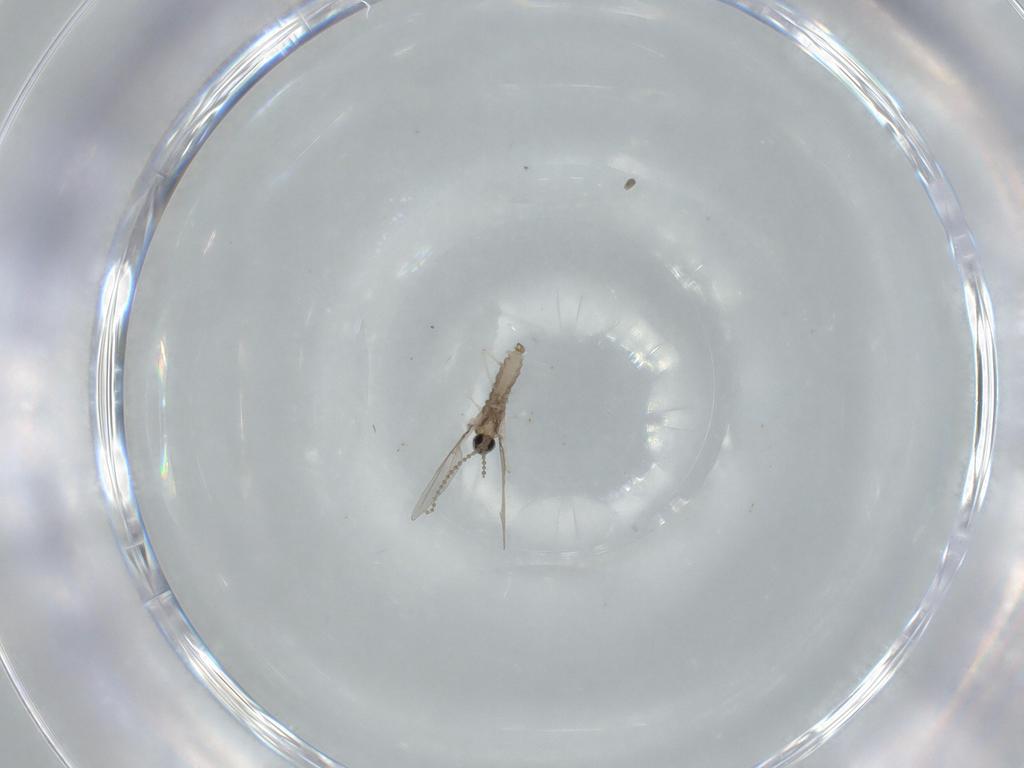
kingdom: Animalia
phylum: Arthropoda
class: Insecta
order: Diptera
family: Cecidomyiidae
